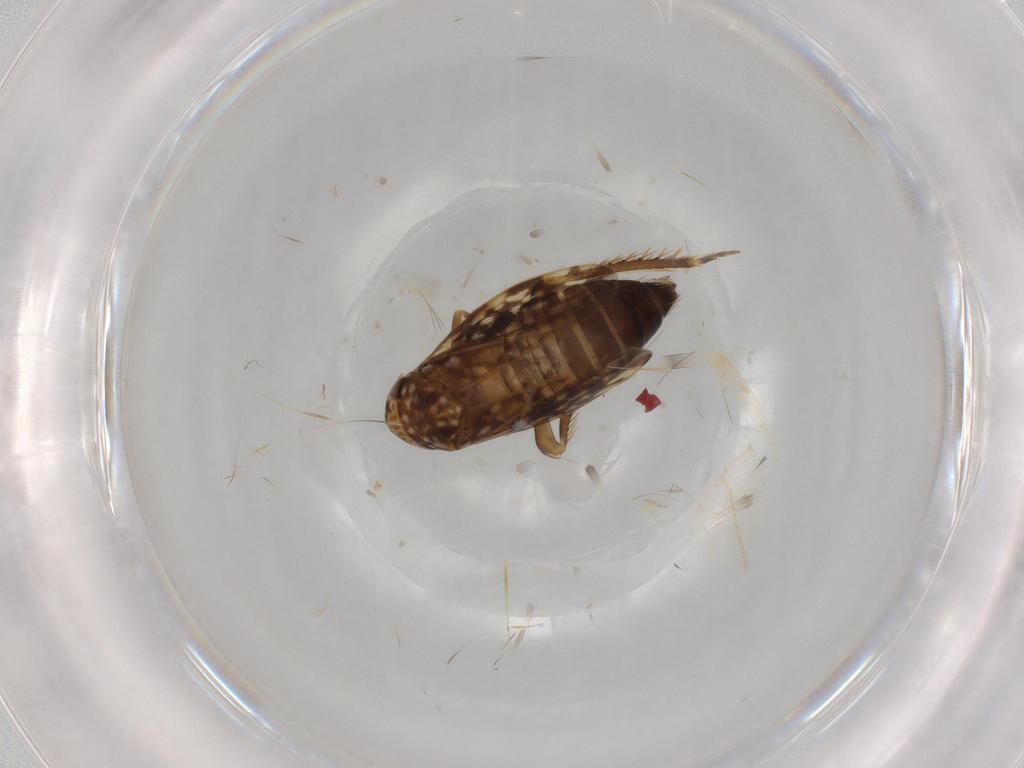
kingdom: Animalia
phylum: Arthropoda
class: Insecta
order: Hemiptera
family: Cicadellidae
